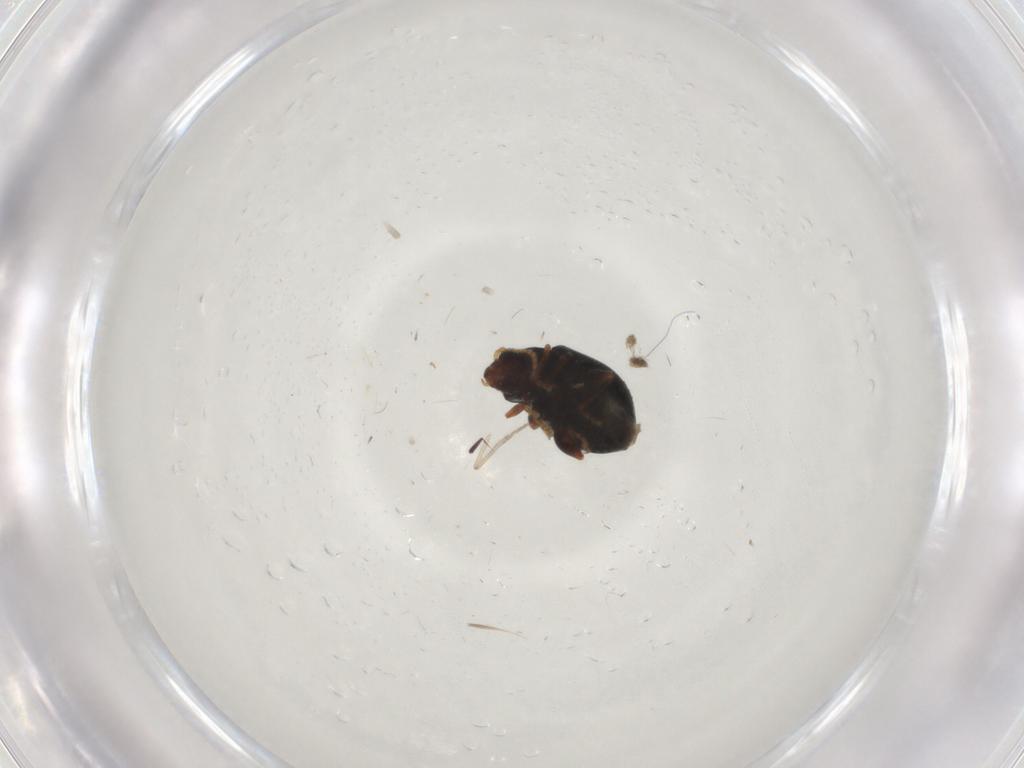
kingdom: Animalia
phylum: Arthropoda
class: Insecta
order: Coleoptera
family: Chrysomelidae
